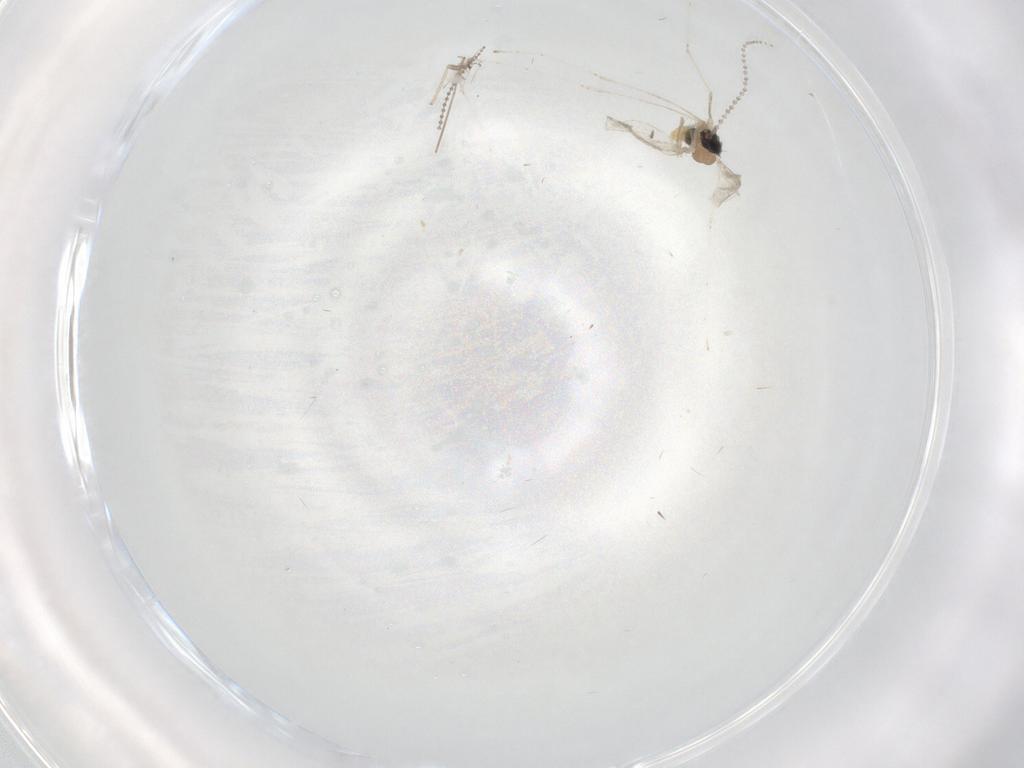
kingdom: Animalia
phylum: Arthropoda
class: Insecta
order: Diptera
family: Cecidomyiidae
